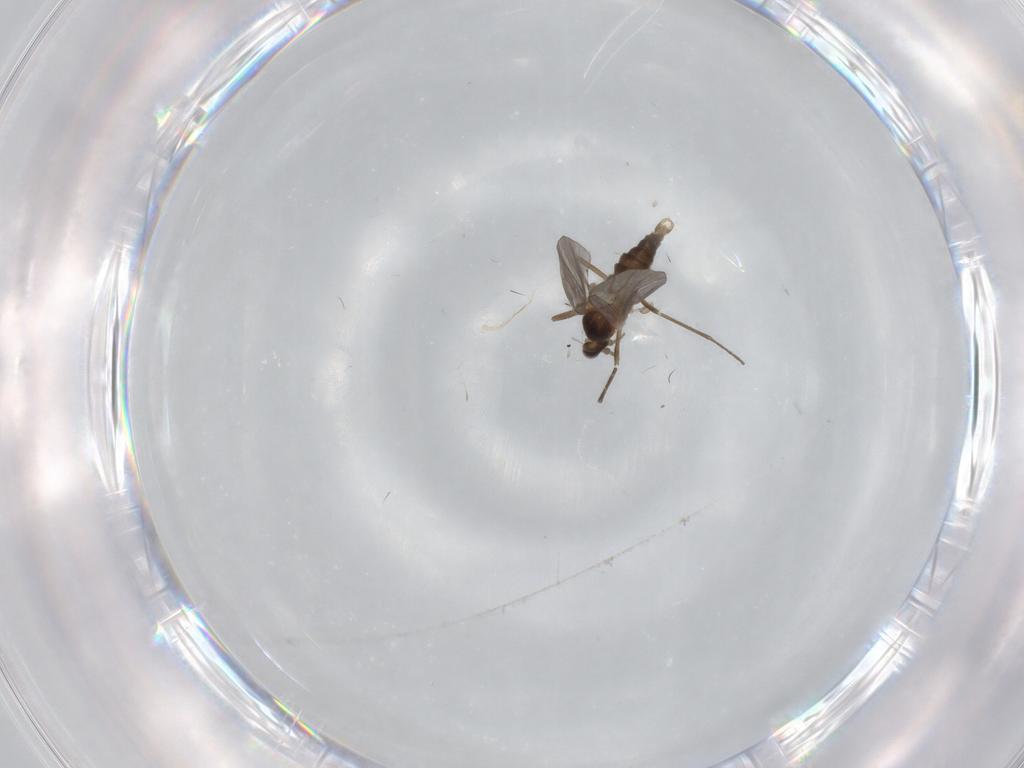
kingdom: Animalia
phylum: Arthropoda
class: Insecta
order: Diptera
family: Cecidomyiidae
